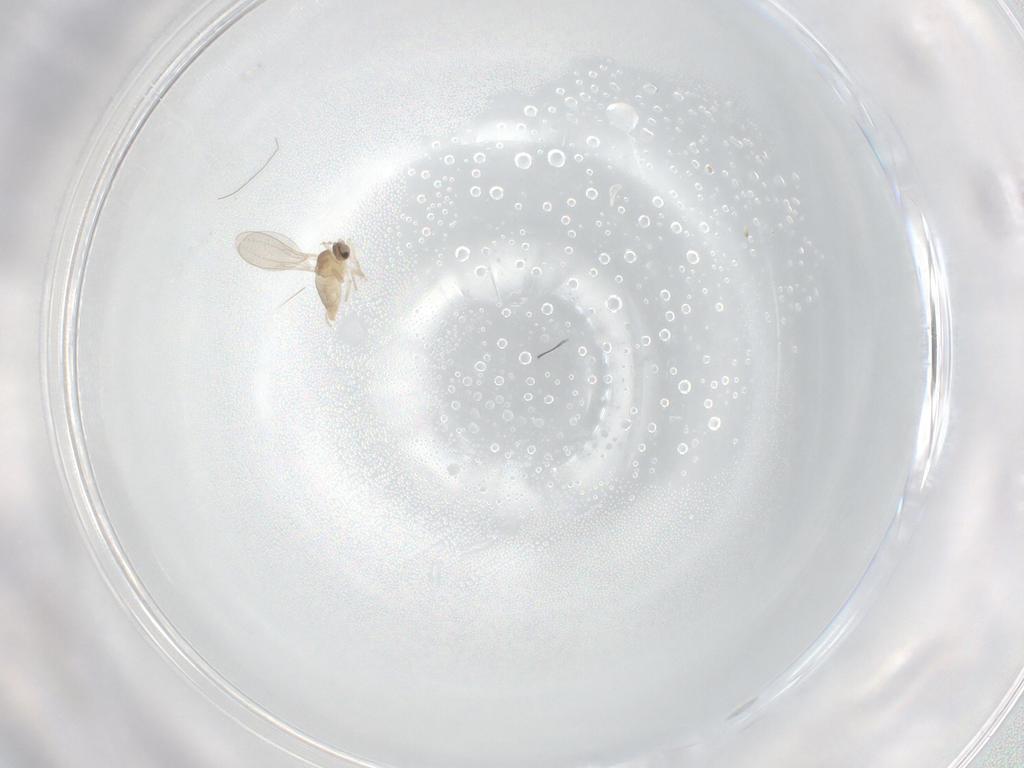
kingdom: Animalia
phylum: Arthropoda
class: Insecta
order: Diptera
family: Cecidomyiidae
